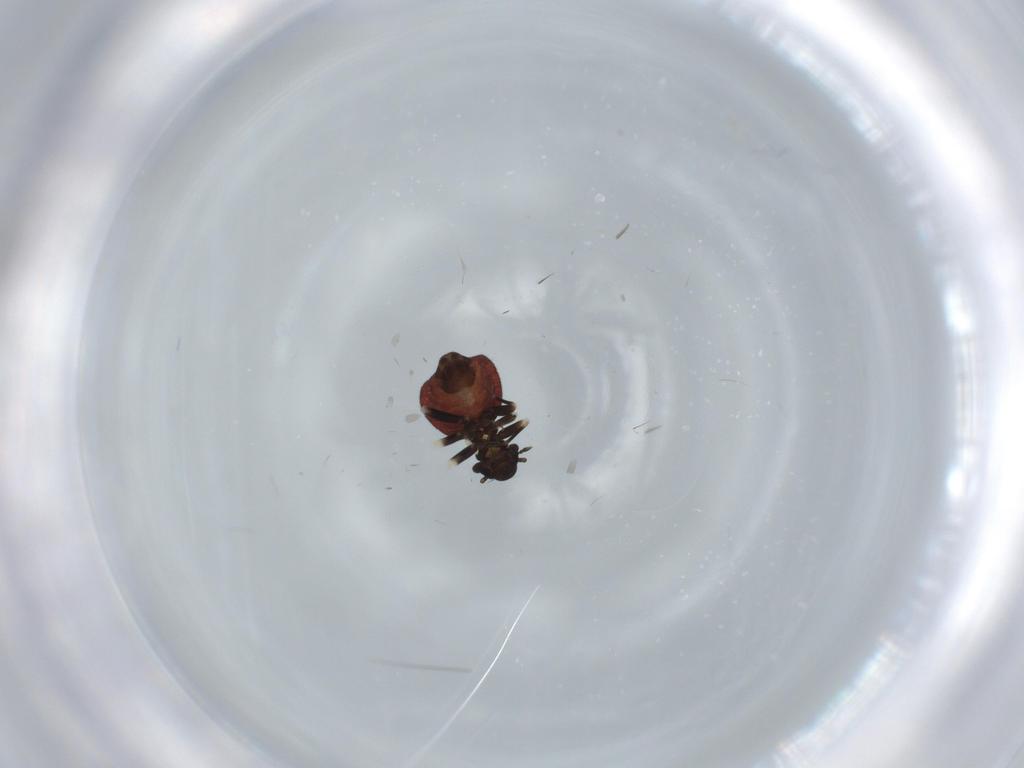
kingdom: Animalia
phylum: Arthropoda
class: Insecta
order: Psocodea
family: Lepidopsocidae
